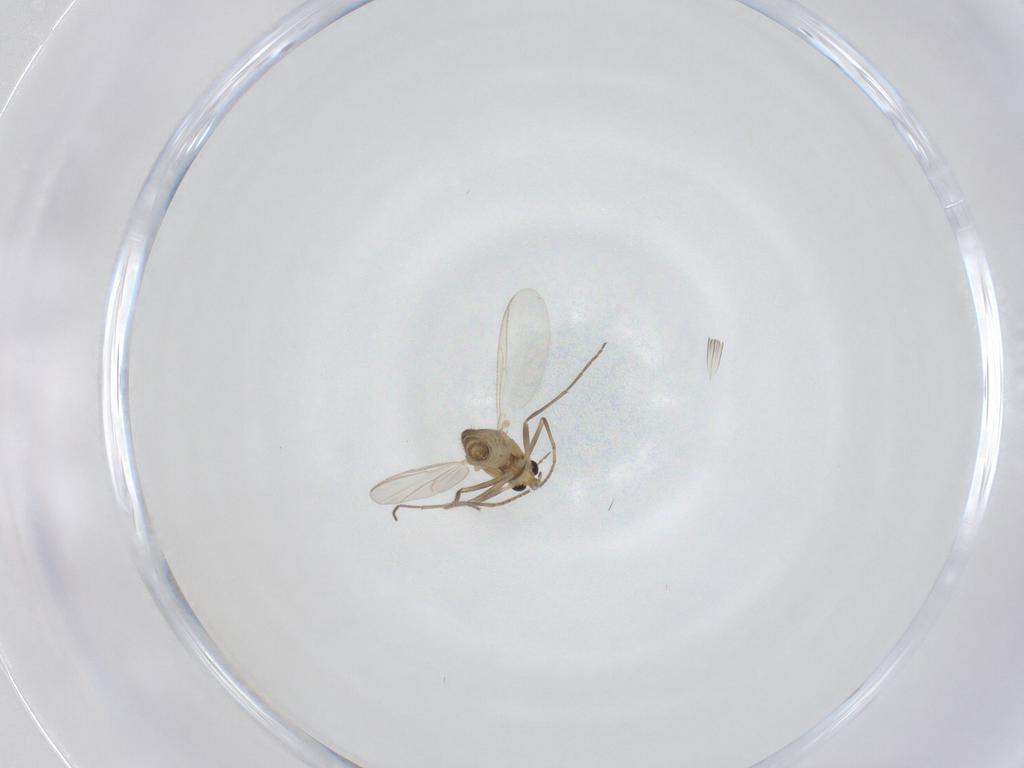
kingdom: Animalia
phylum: Arthropoda
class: Insecta
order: Diptera
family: Chironomidae
